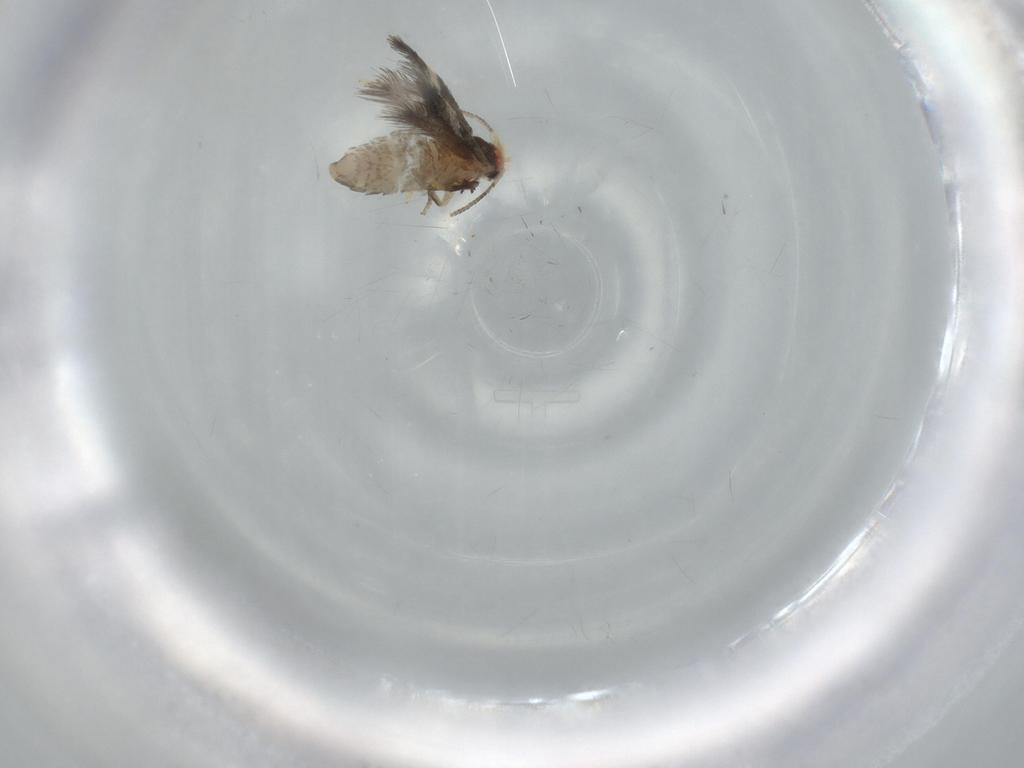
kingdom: Animalia
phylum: Arthropoda
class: Insecta
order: Lepidoptera
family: Nepticulidae
